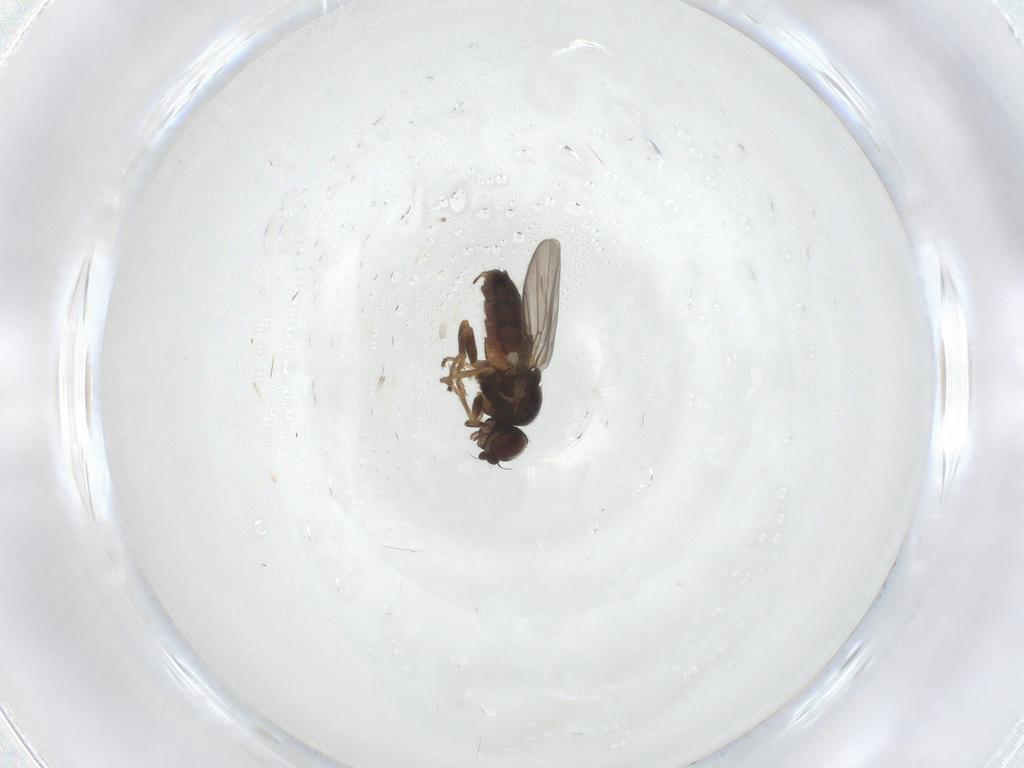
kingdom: Animalia
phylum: Arthropoda
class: Insecta
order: Diptera
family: Chloropidae
